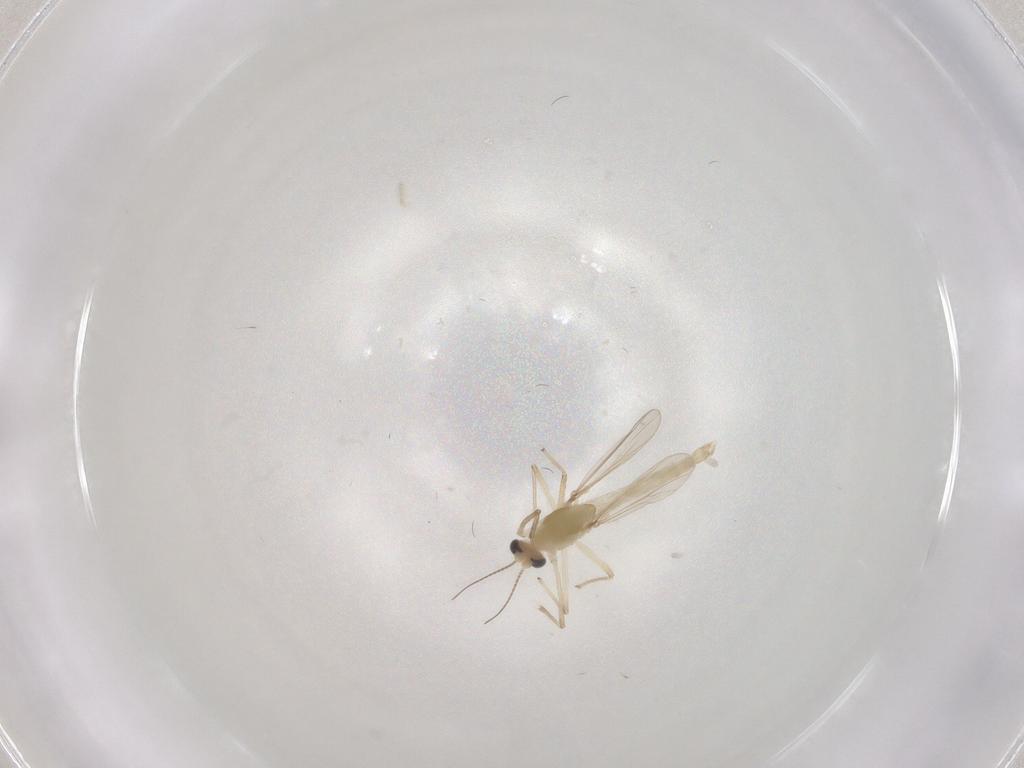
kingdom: Animalia
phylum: Arthropoda
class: Insecta
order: Diptera
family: Chironomidae
